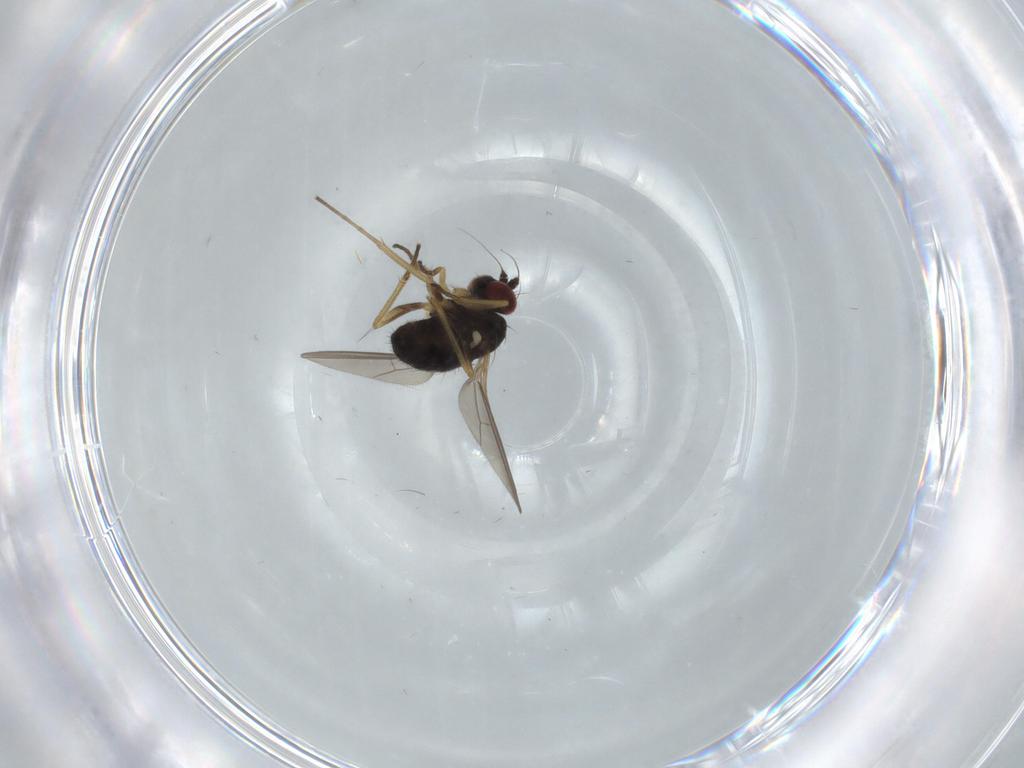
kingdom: Animalia
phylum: Arthropoda
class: Insecta
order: Diptera
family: Dolichopodidae
